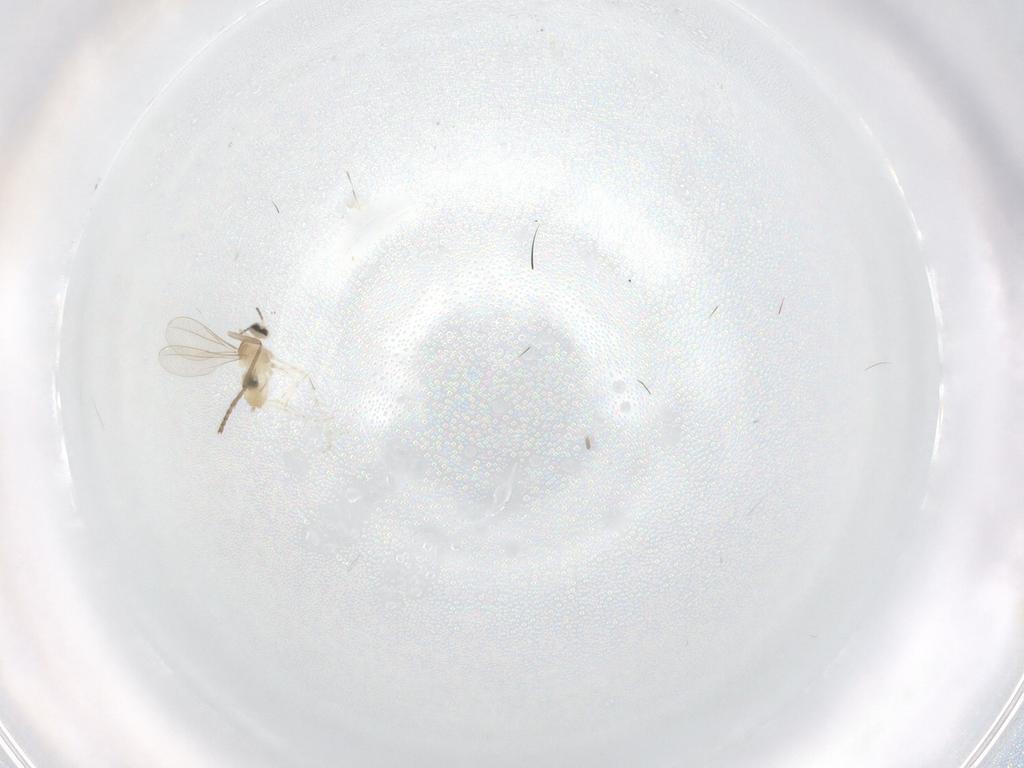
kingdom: Animalia
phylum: Arthropoda
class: Insecta
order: Diptera
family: Cecidomyiidae
